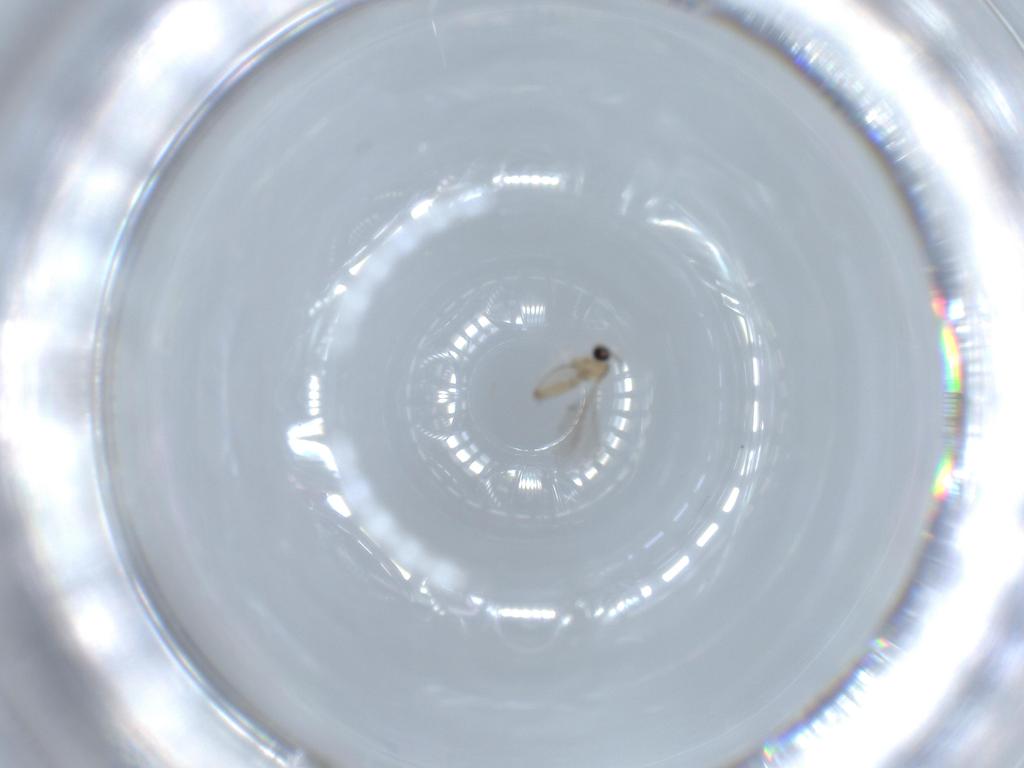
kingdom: Animalia
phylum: Arthropoda
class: Insecta
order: Diptera
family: Cecidomyiidae
